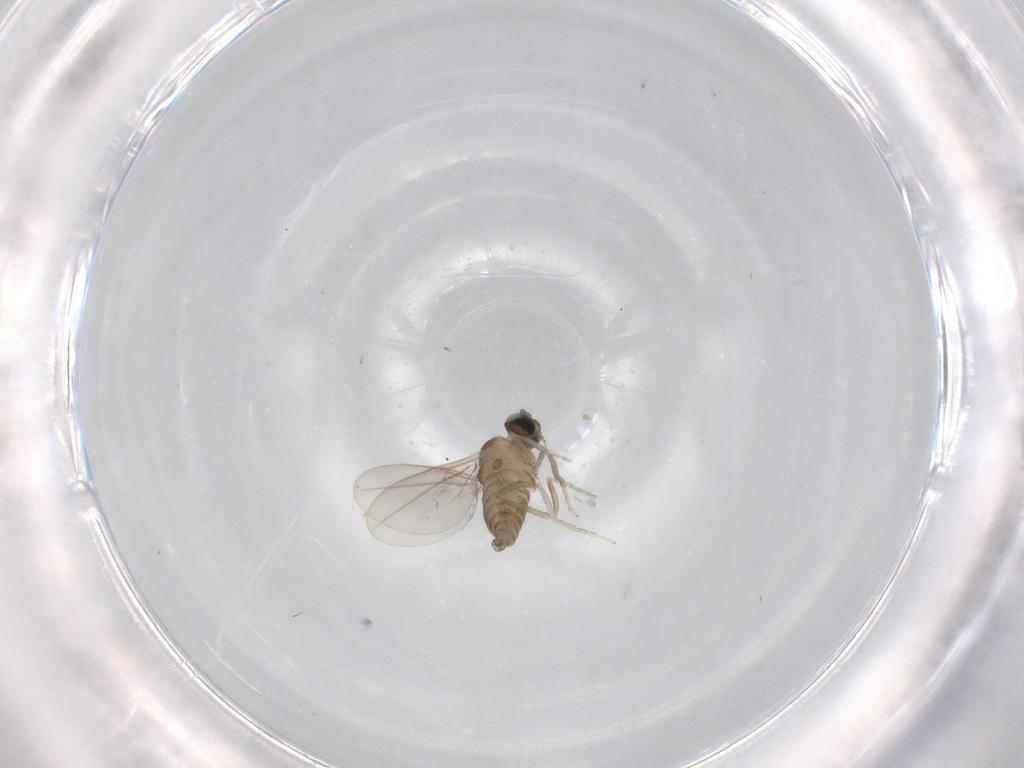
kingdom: Animalia
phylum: Arthropoda
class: Insecta
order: Diptera
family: Cecidomyiidae
